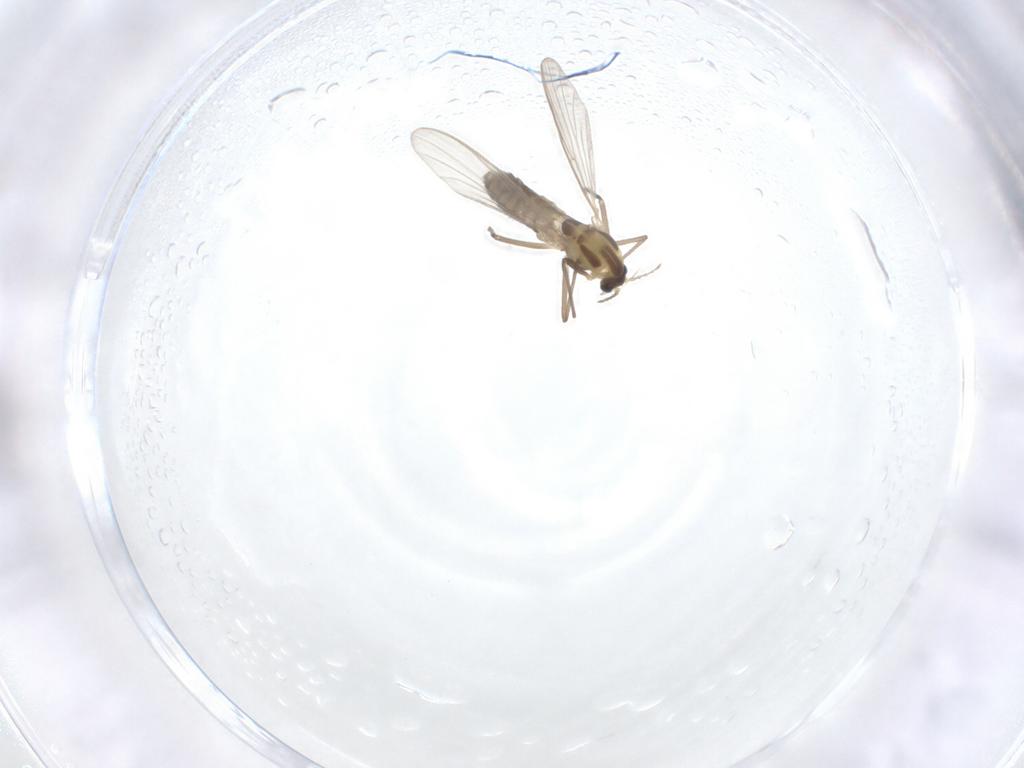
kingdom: Animalia
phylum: Arthropoda
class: Insecta
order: Diptera
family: Chironomidae
